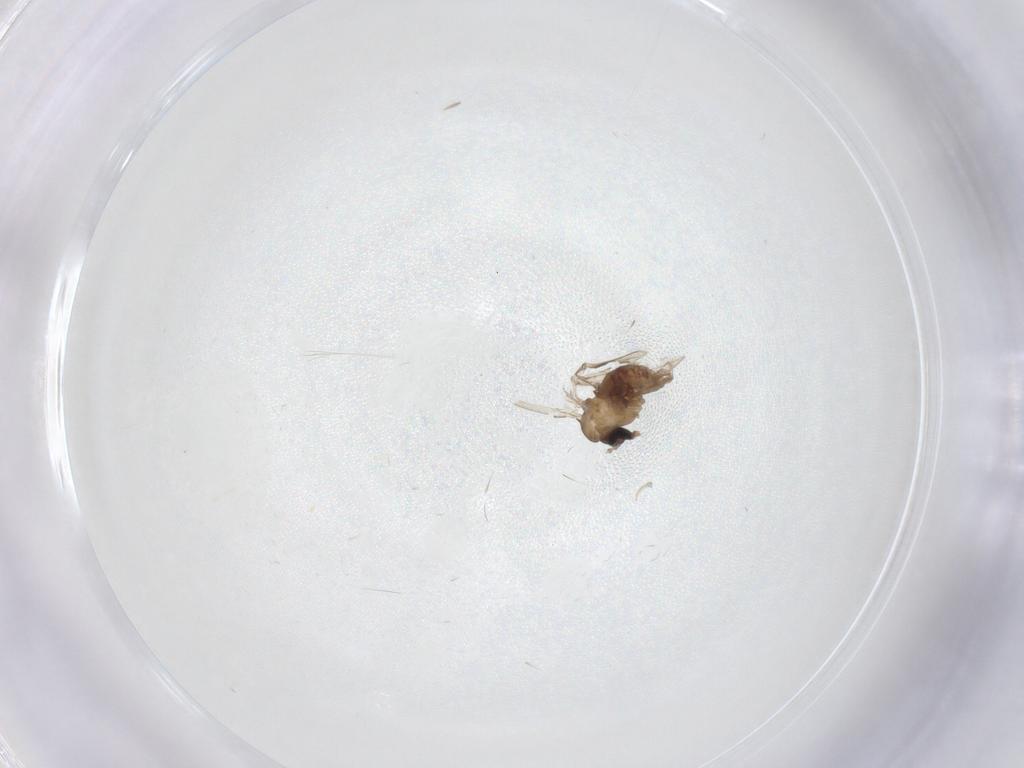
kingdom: Animalia
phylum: Arthropoda
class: Insecta
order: Diptera
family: Psychodidae
